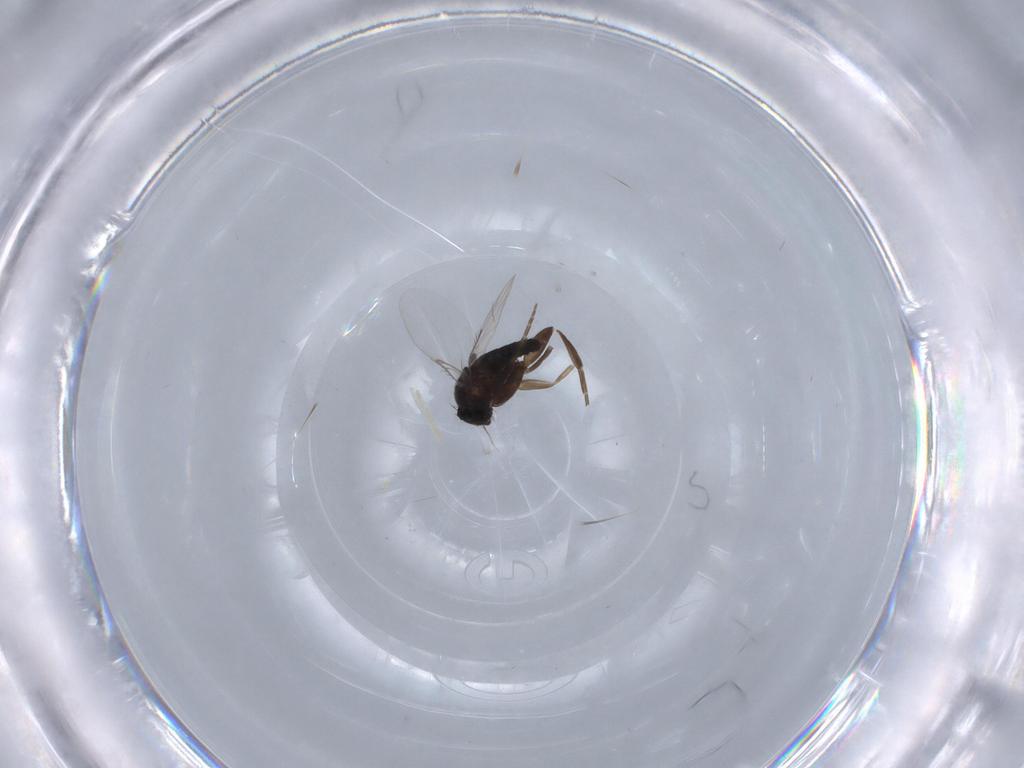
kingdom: Animalia
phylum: Arthropoda
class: Insecta
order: Diptera
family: Phoridae
